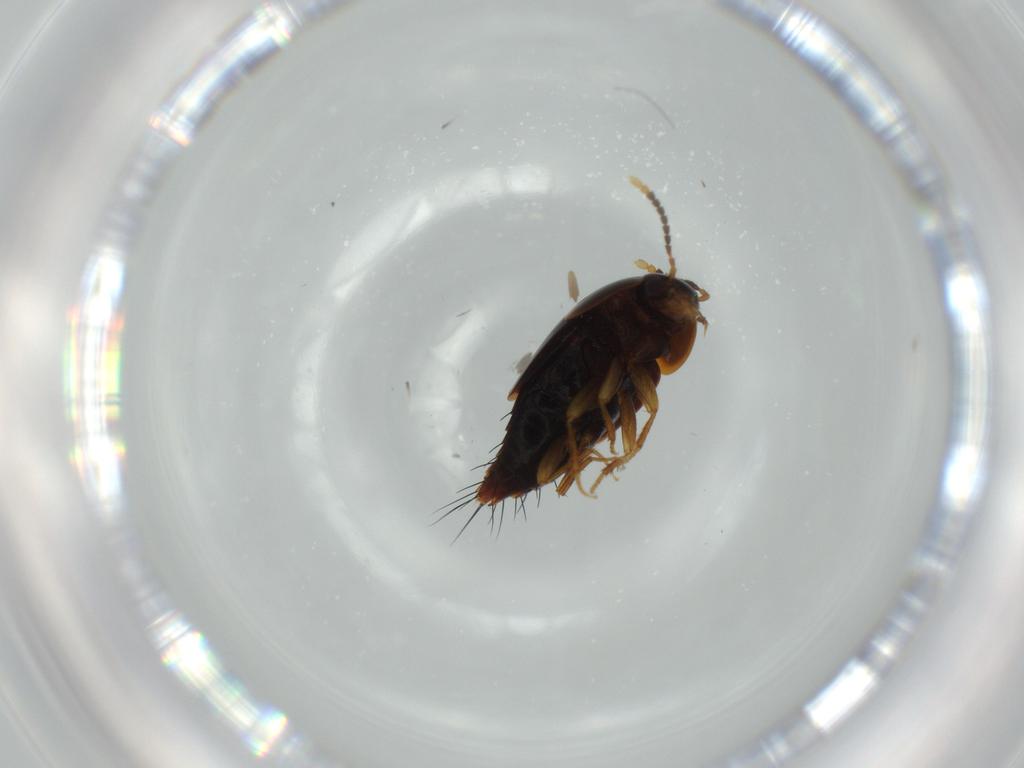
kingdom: Animalia
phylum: Arthropoda
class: Insecta
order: Coleoptera
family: Staphylinidae
